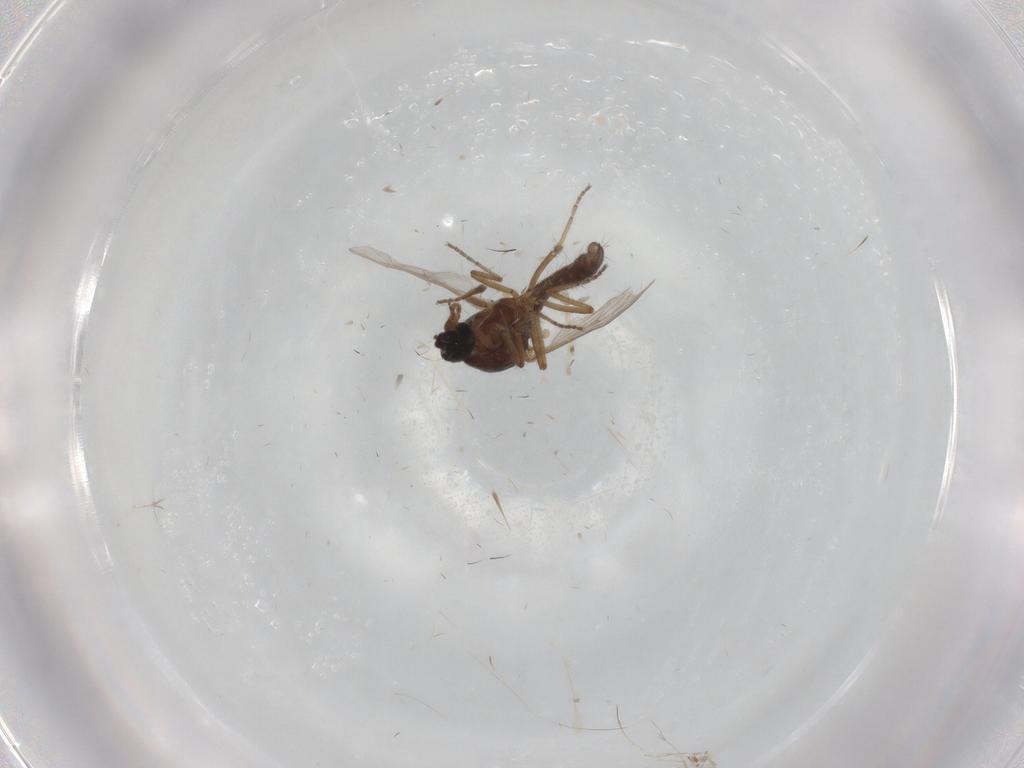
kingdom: Animalia
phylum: Arthropoda
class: Insecta
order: Diptera
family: Ceratopogonidae
